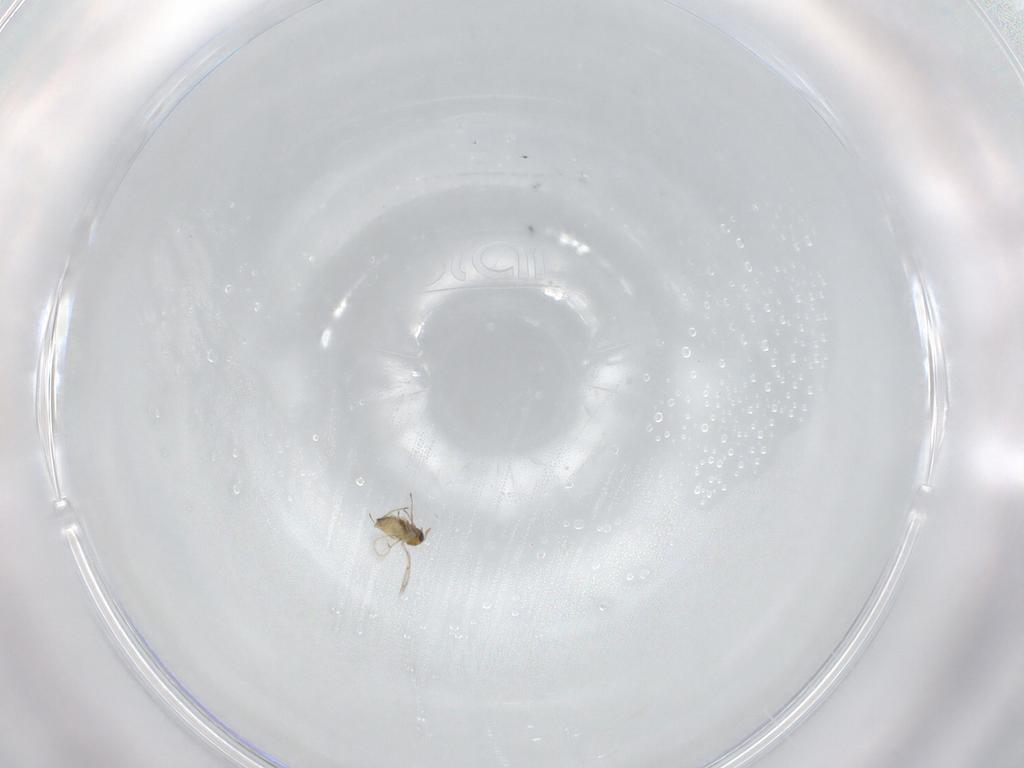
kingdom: Animalia
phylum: Arthropoda
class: Insecta
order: Hymenoptera
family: Trichogrammatidae
